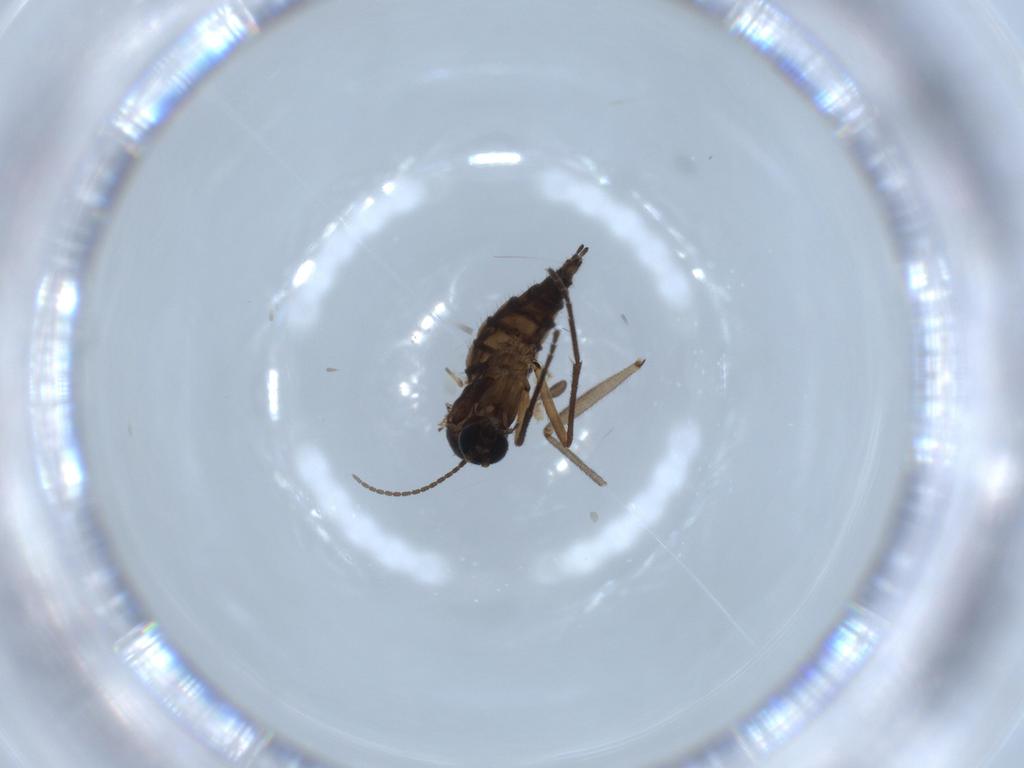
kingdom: Animalia
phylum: Arthropoda
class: Insecta
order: Diptera
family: Sciaridae
